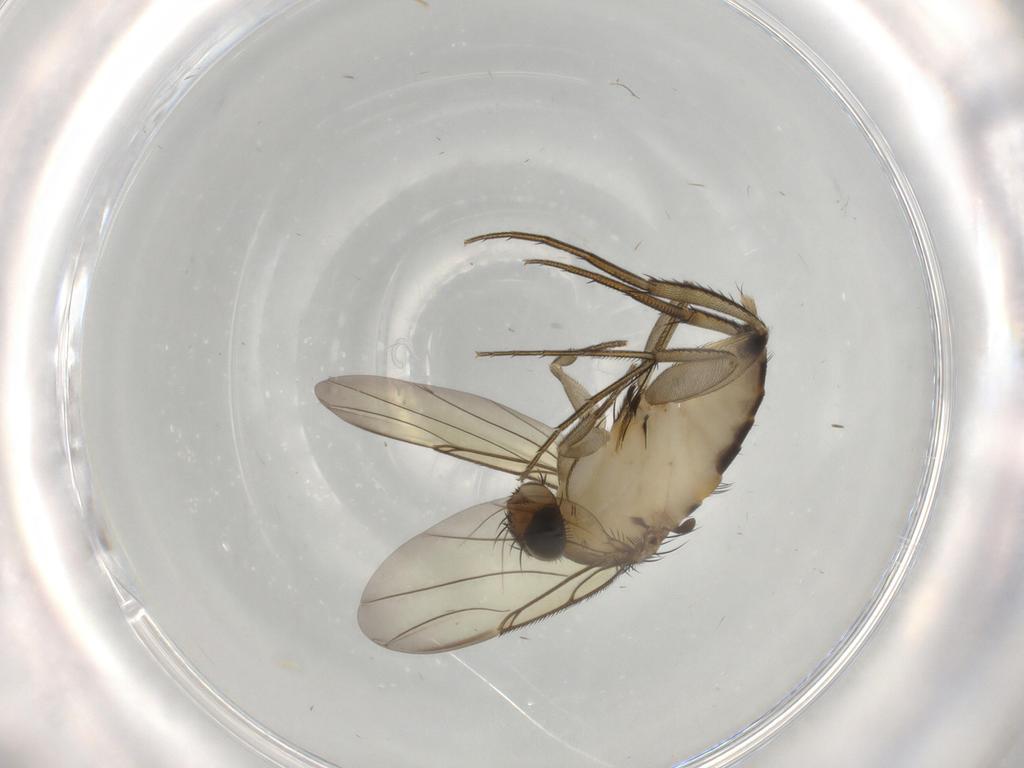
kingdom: Animalia
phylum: Arthropoda
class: Insecta
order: Diptera
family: Phoridae
